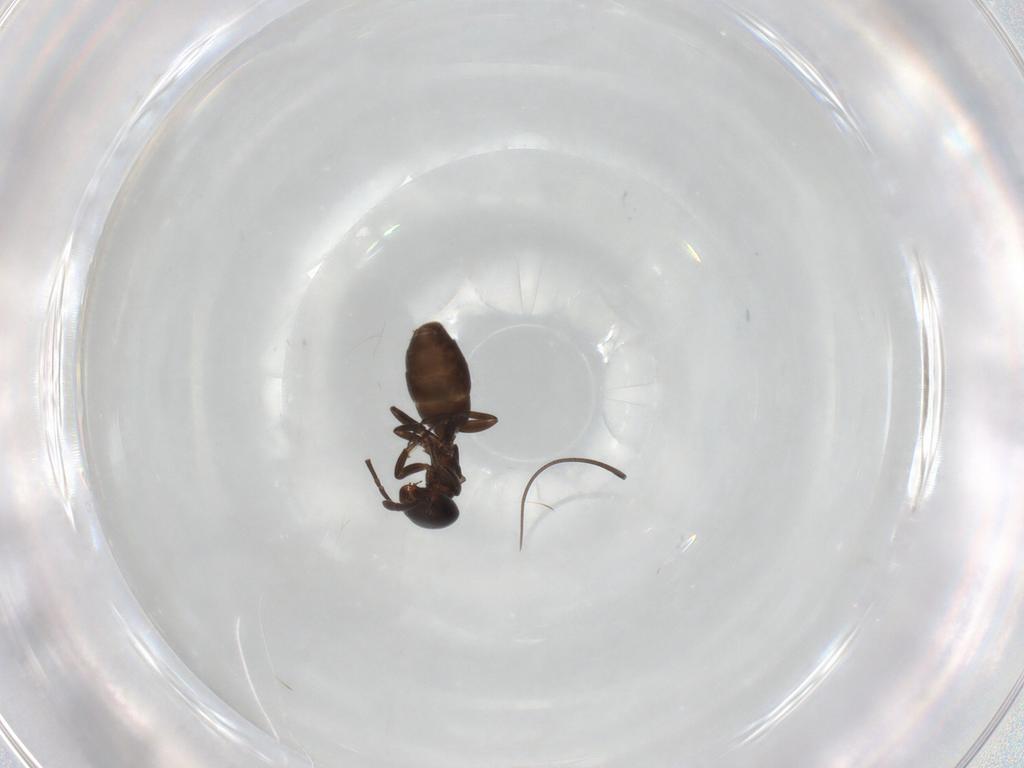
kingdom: Animalia
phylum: Arthropoda
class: Insecta
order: Hymenoptera
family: Formicidae
